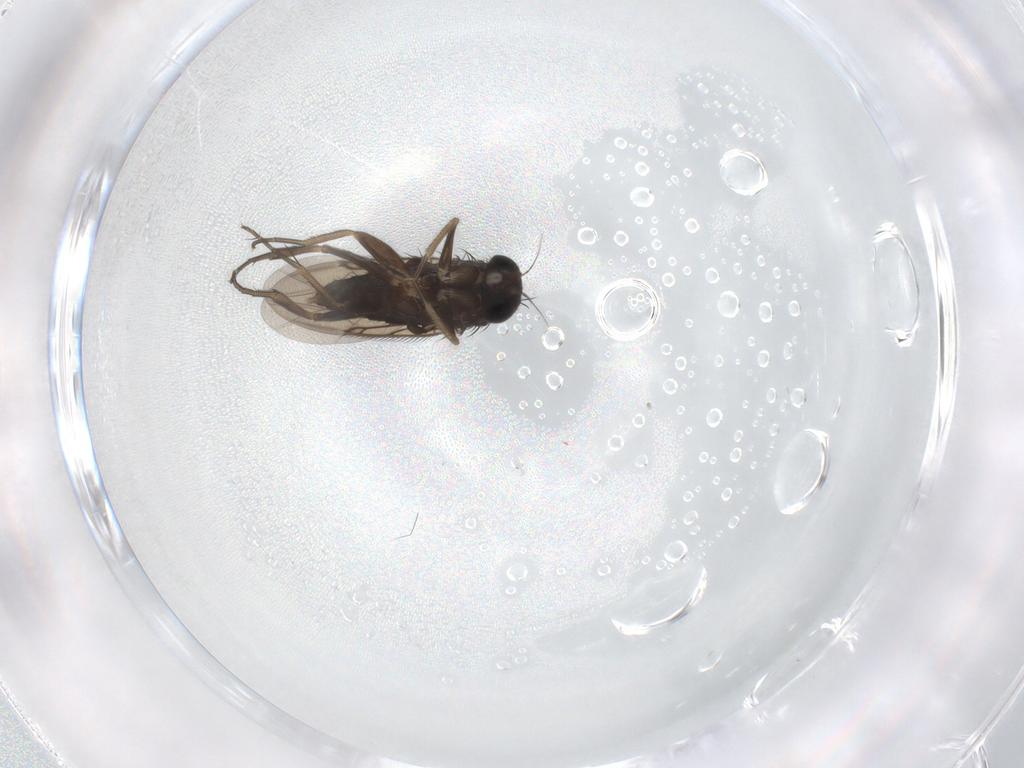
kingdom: Animalia
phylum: Arthropoda
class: Insecta
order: Diptera
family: Phoridae
